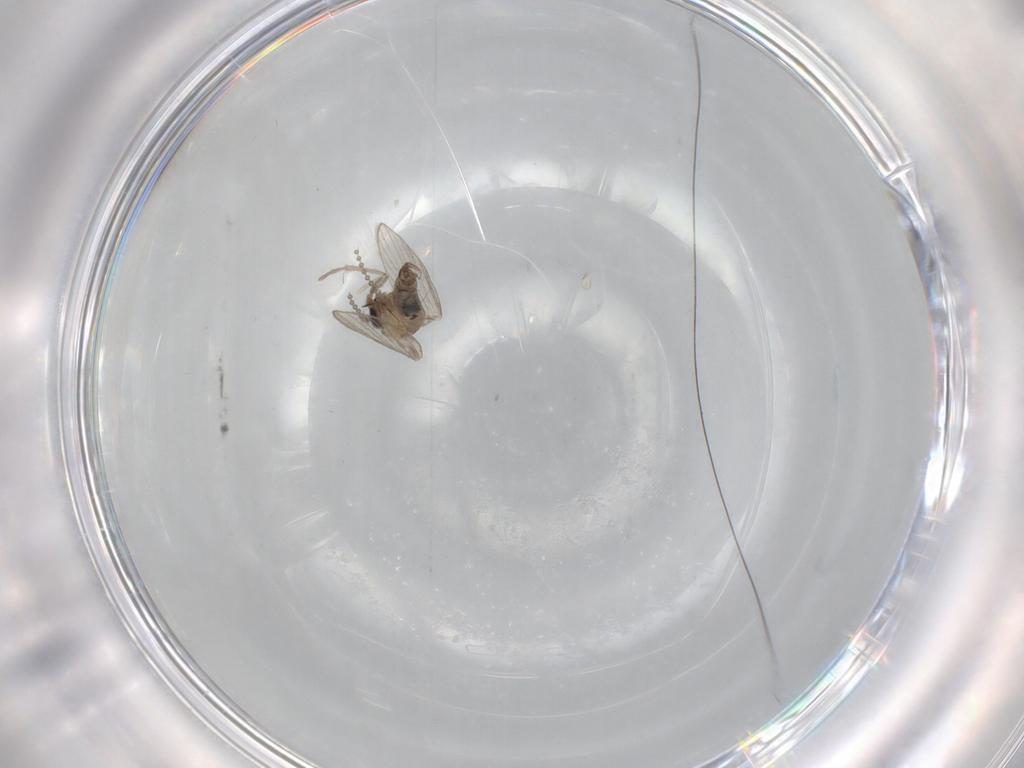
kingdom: Animalia
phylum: Arthropoda
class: Insecta
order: Diptera
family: Psychodidae
